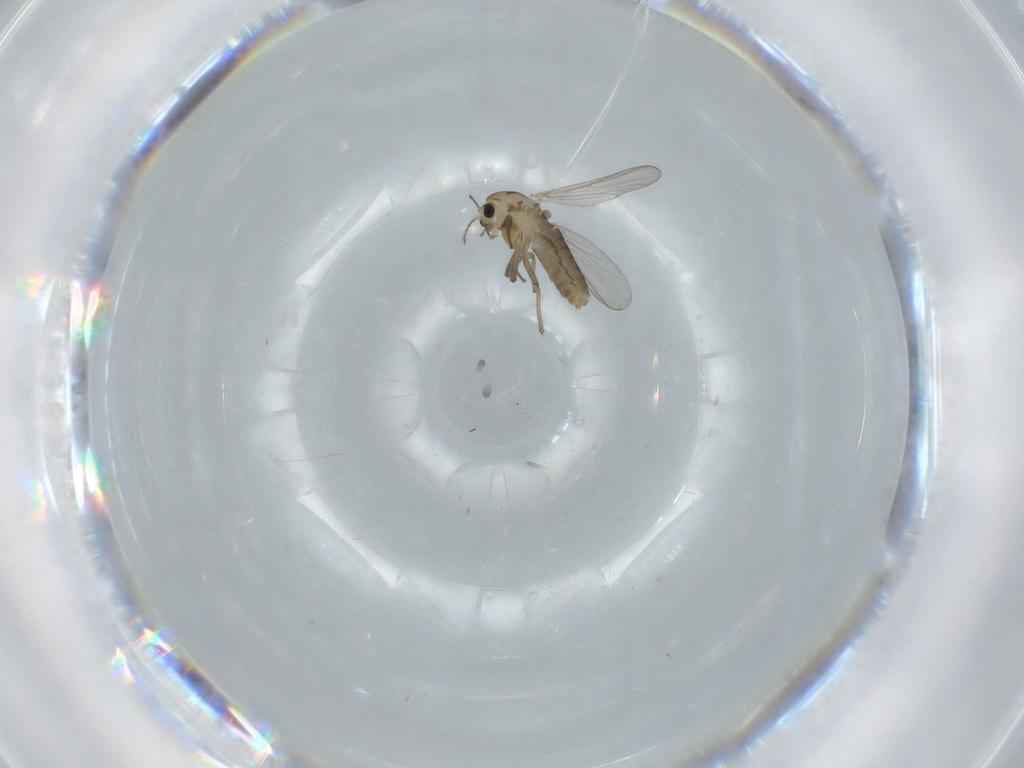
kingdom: Animalia
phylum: Arthropoda
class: Insecta
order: Diptera
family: Chironomidae
